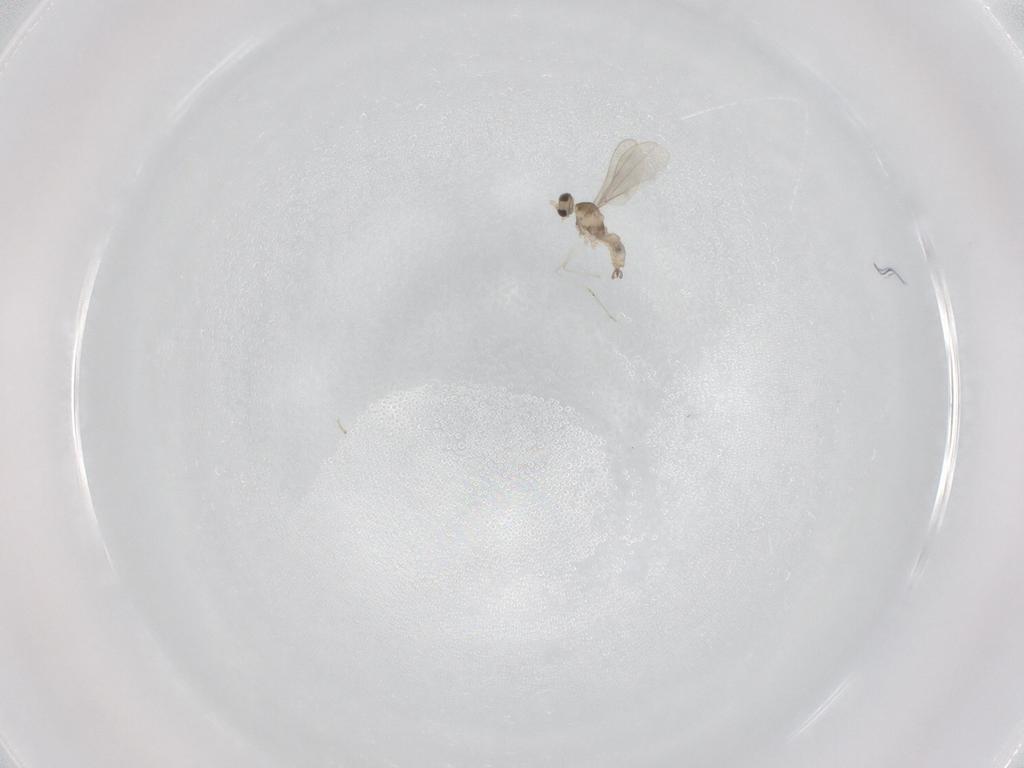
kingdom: Animalia
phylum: Arthropoda
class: Insecta
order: Diptera
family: Cecidomyiidae
